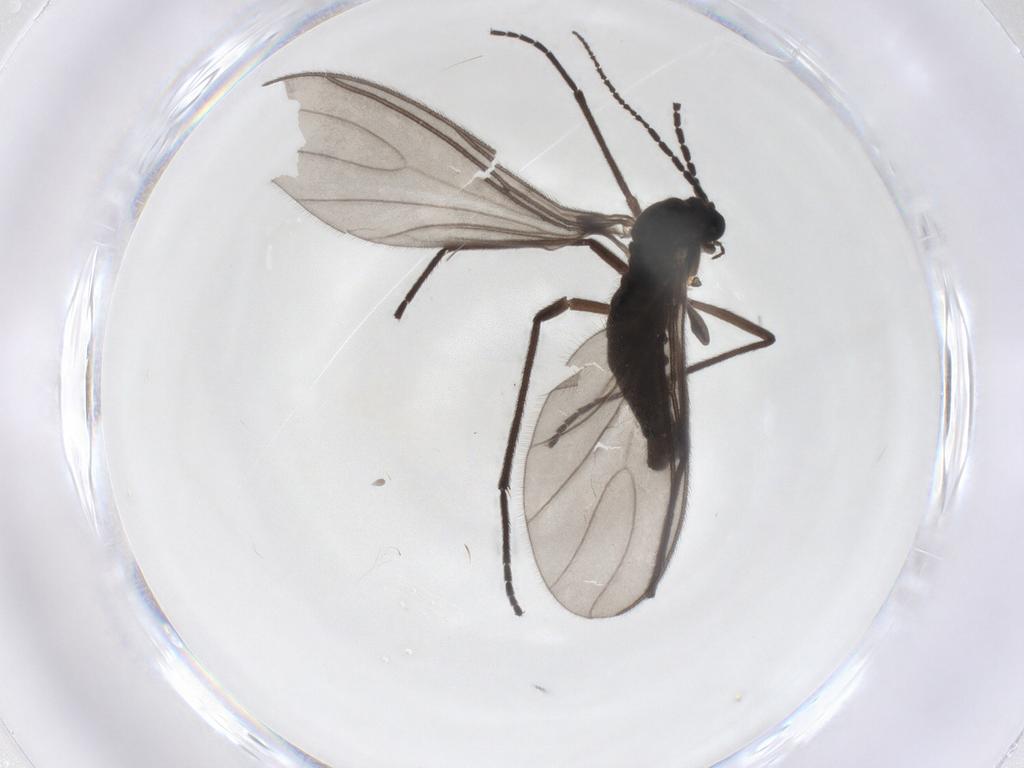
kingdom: Animalia
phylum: Arthropoda
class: Insecta
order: Diptera
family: Sciaridae
